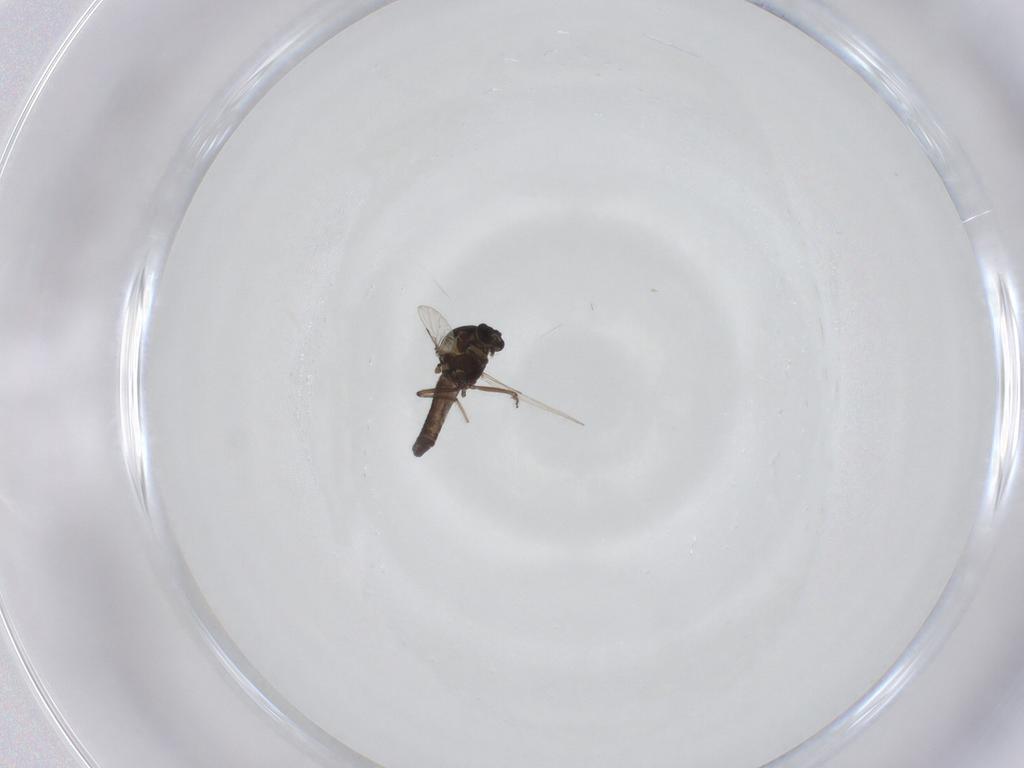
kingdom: Animalia
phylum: Arthropoda
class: Insecta
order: Diptera
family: Ceratopogonidae
